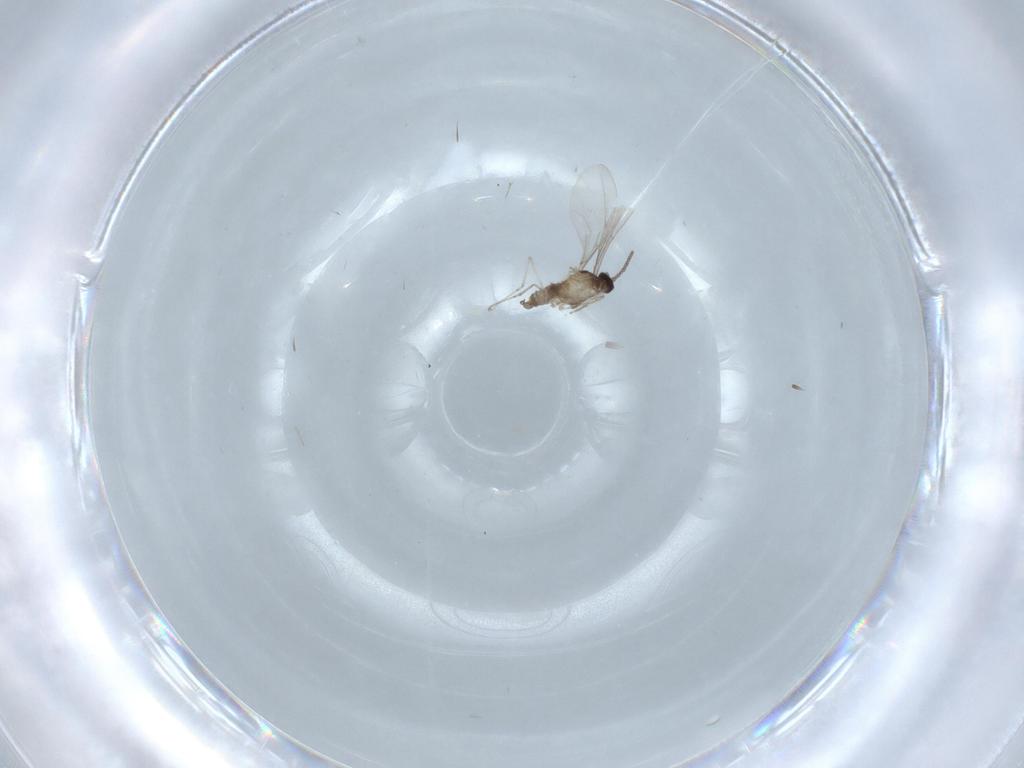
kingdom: Animalia
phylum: Arthropoda
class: Insecta
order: Diptera
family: Cecidomyiidae
